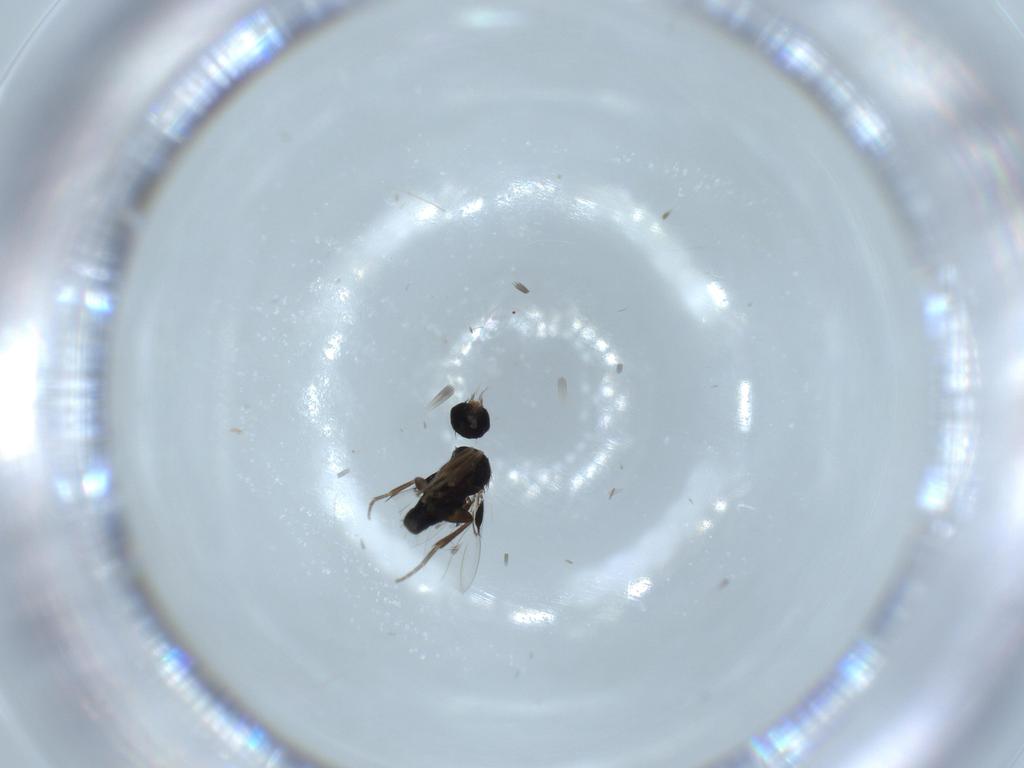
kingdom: Animalia
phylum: Arthropoda
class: Insecta
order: Diptera
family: Phoridae
